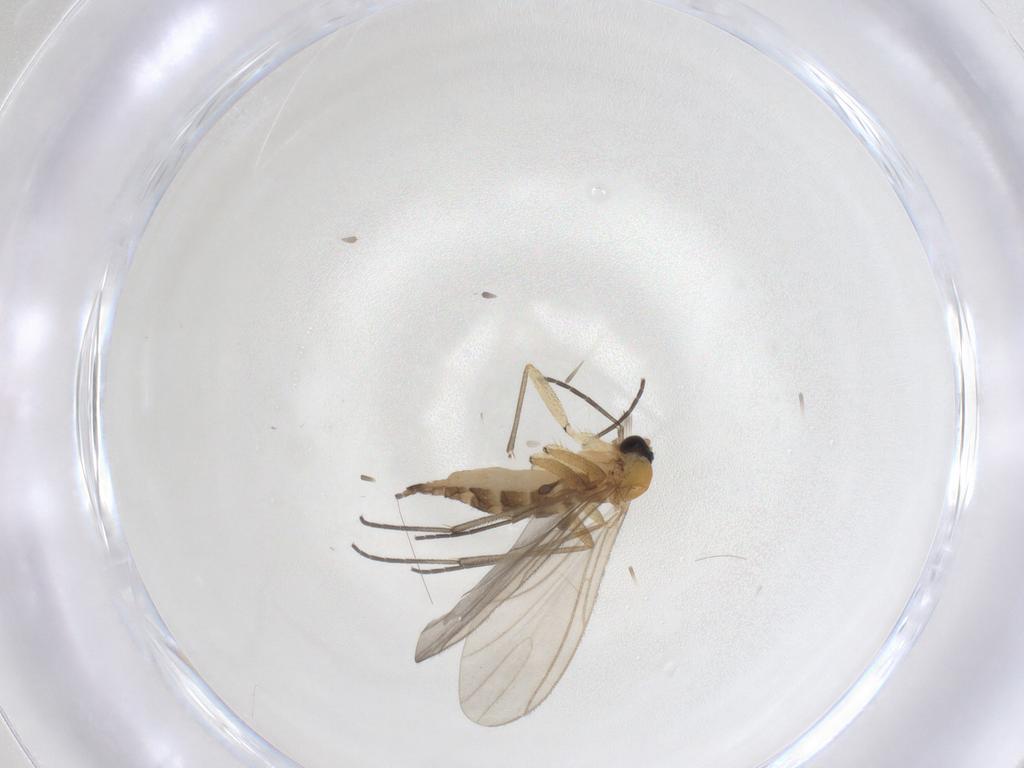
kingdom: Animalia
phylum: Arthropoda
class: Insecta
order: Diptera
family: Sciaridae
